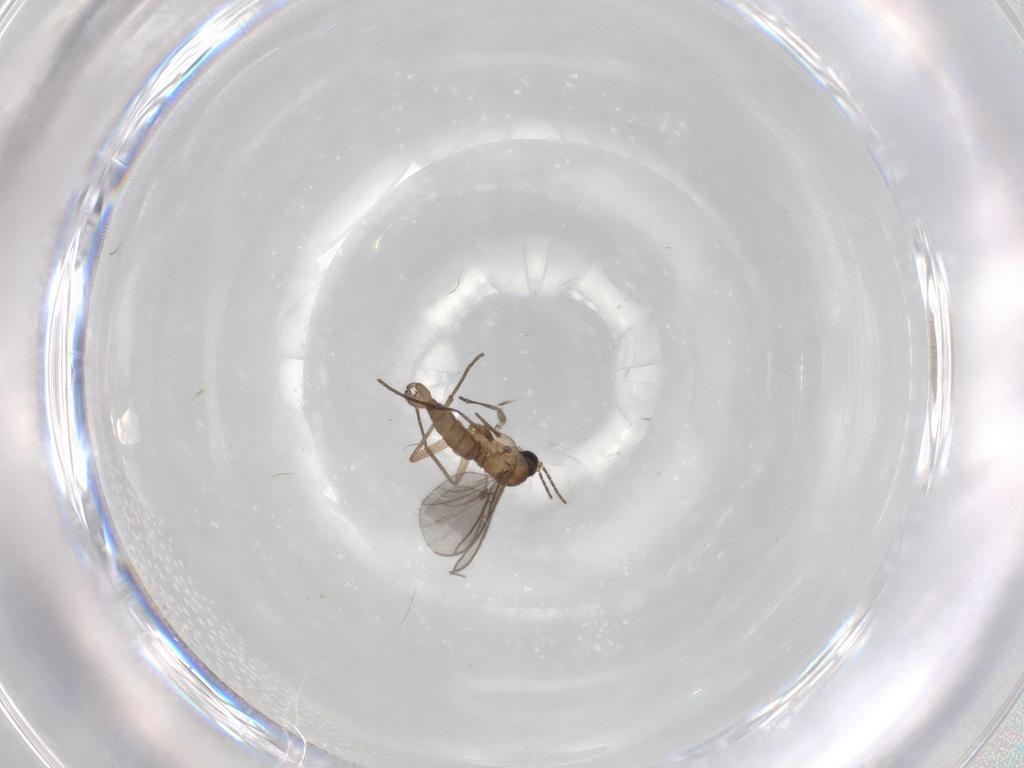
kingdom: Animalia
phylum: Arthropoda
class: Insecta
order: Diptera
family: Sciaridae
